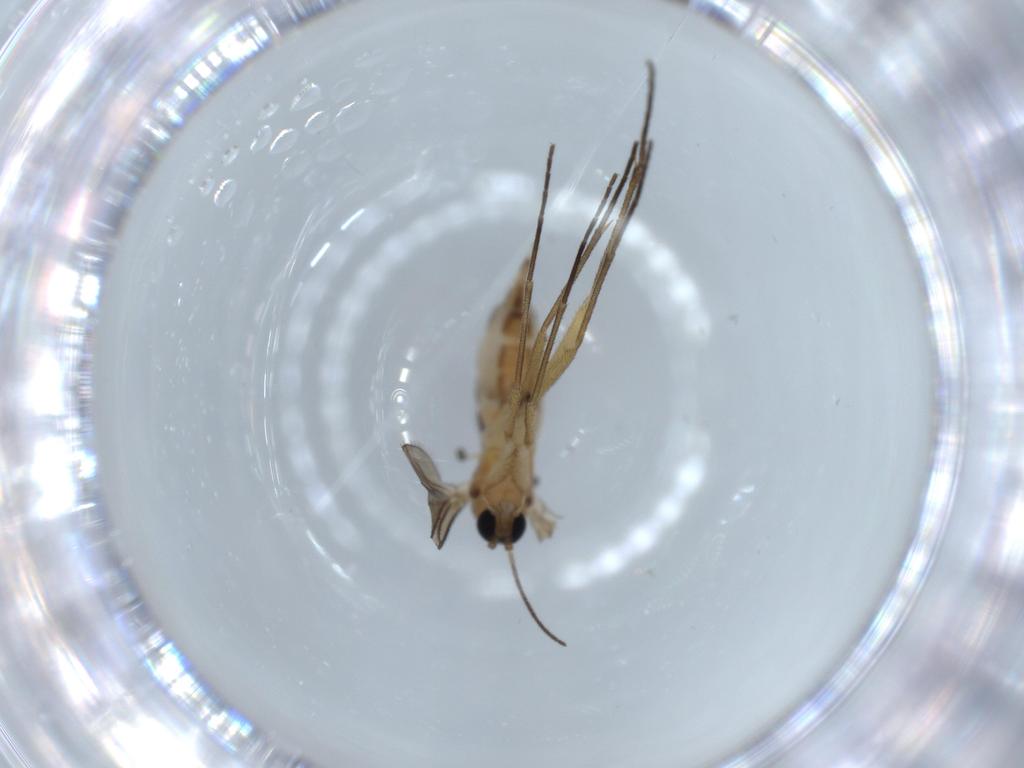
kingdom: Animalia
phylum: Arthropoda
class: Insecta
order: Diptera
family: Sciaridae
